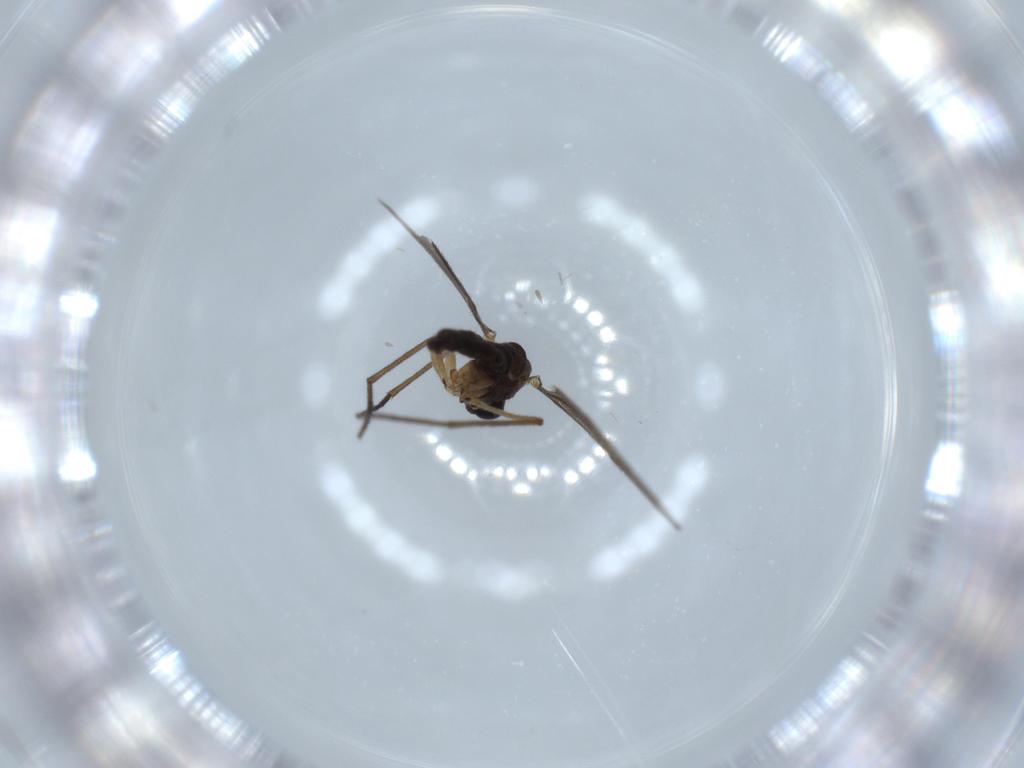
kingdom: Animalia
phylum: Arthropoda
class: Insecta
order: Diptera
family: Sciaridae
